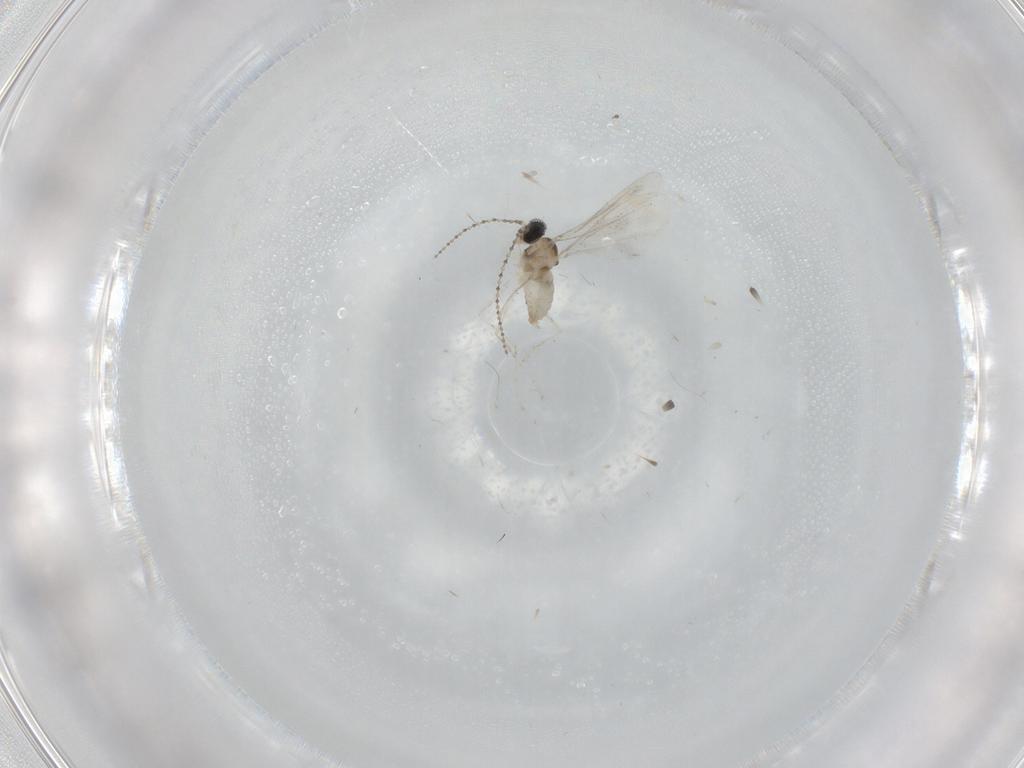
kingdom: Animalia
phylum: Arthropoda
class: Insecta
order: Diptera
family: Cecidomyiidae
